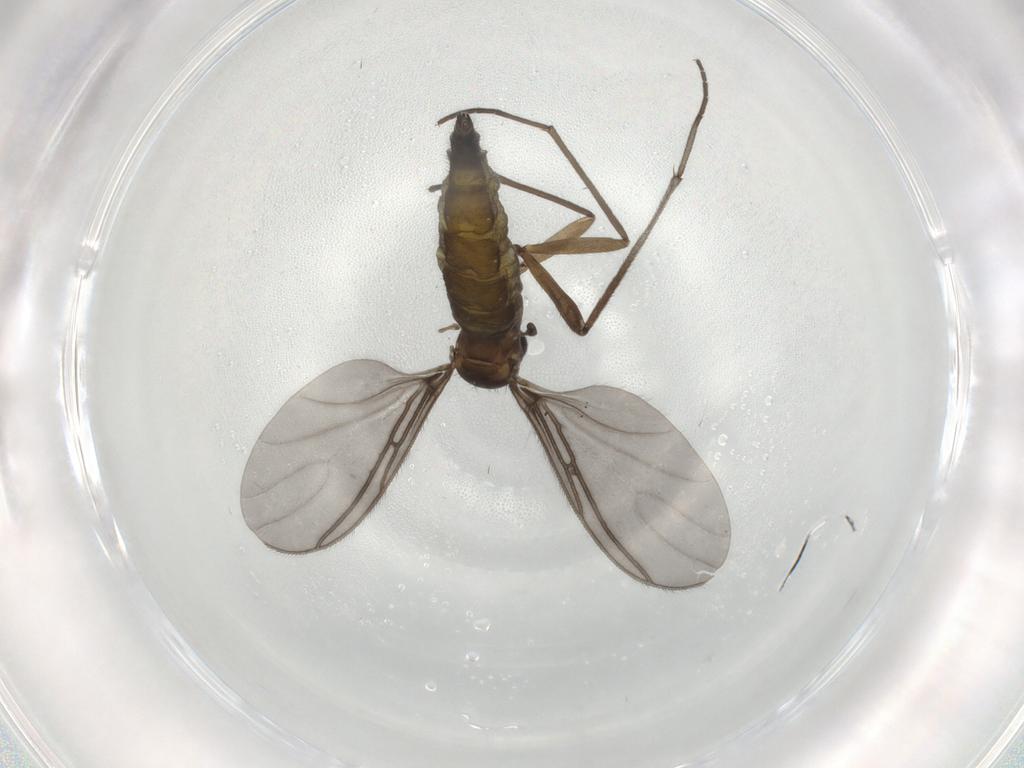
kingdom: Animalia
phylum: Arthropoda
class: Insecta
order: Diptera
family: Sciaridae
